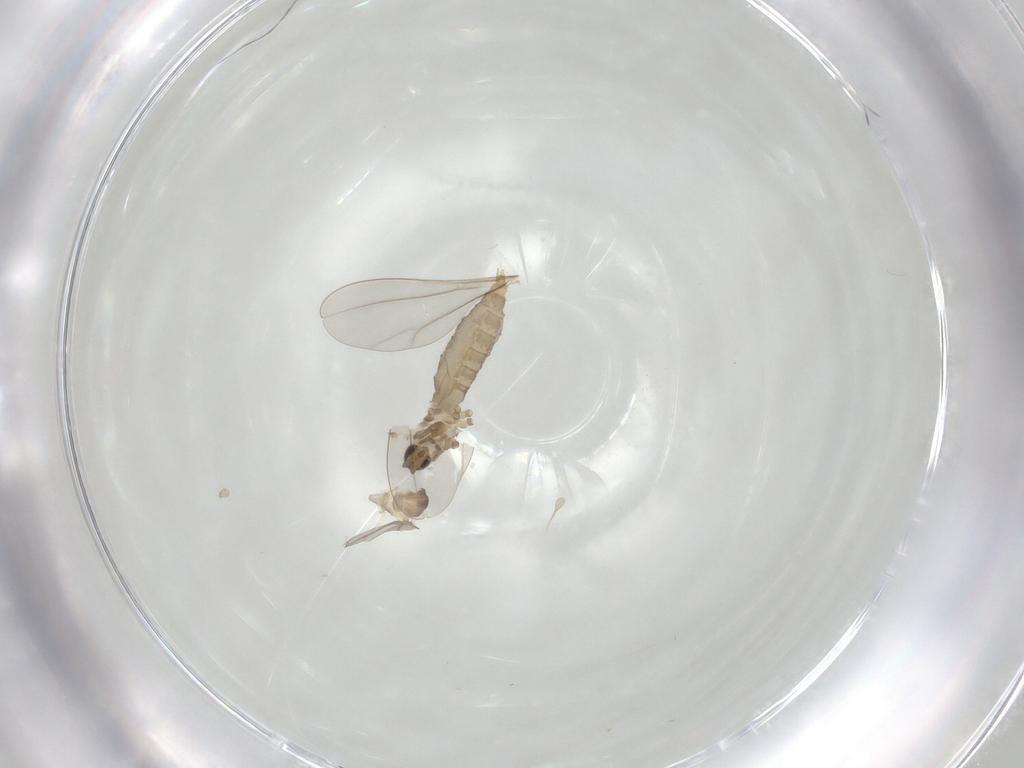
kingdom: Animalia
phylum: Arthropoda
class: Insecta
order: Diptera
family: Cecidomyiidae
